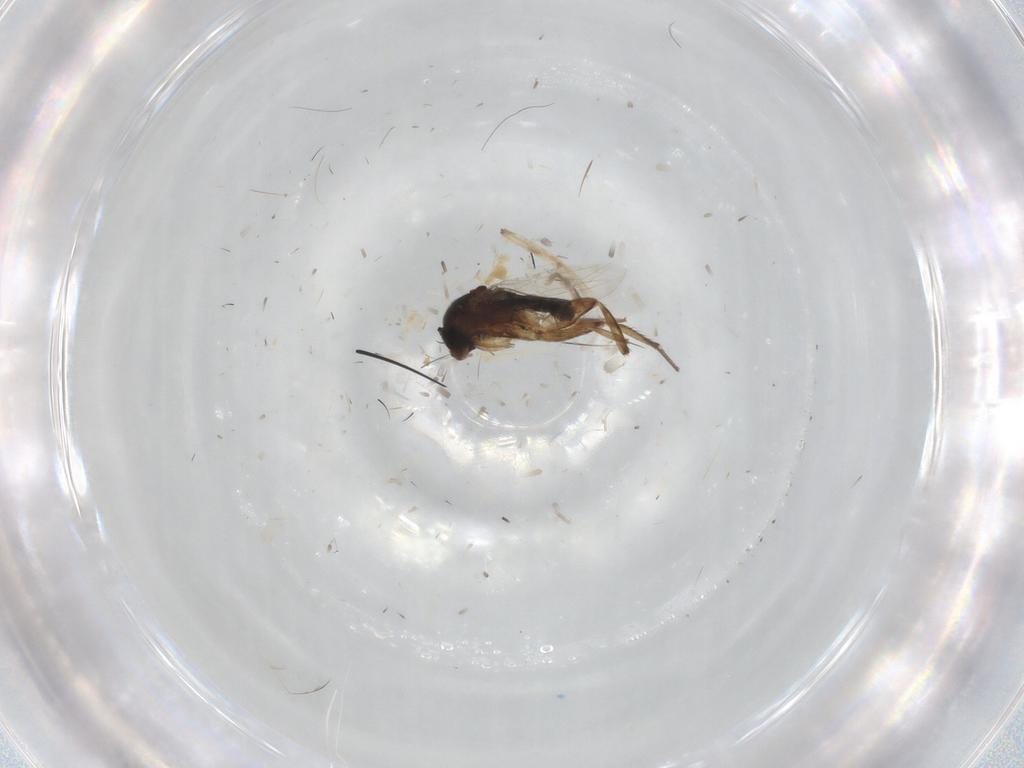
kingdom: Animalia
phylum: Arthropoda
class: Insecta
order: Diptera
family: Glossinidae
